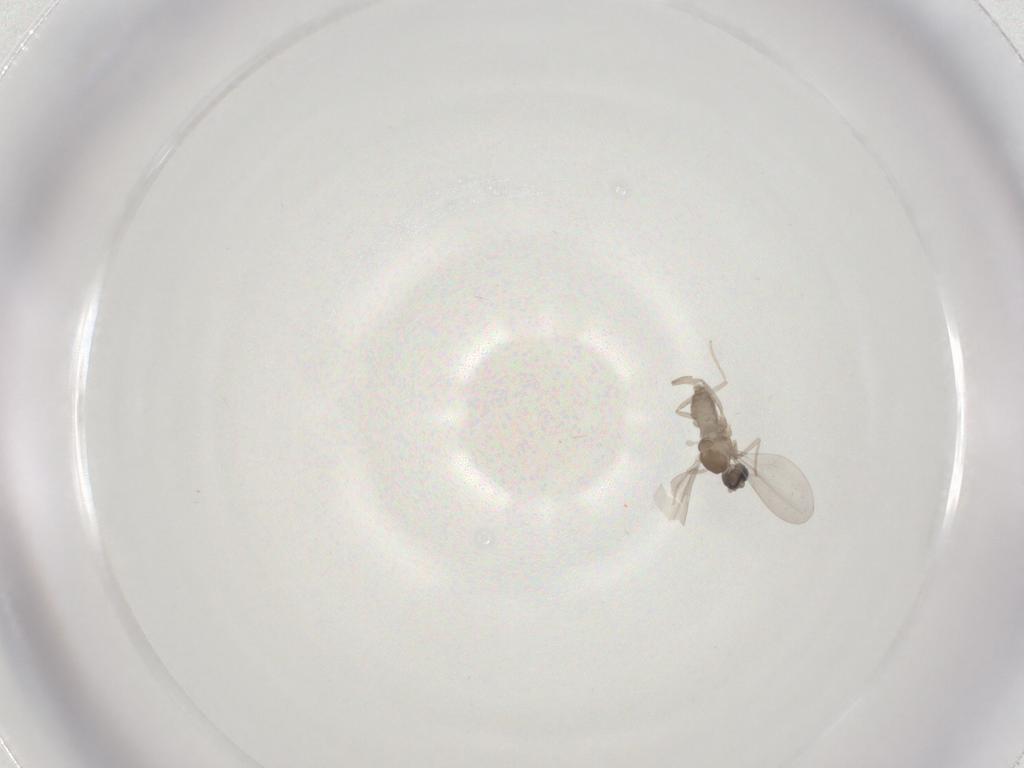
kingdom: Animalia
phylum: Arthropoda
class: Insecta
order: Diptera
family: Cecidomyiidae
